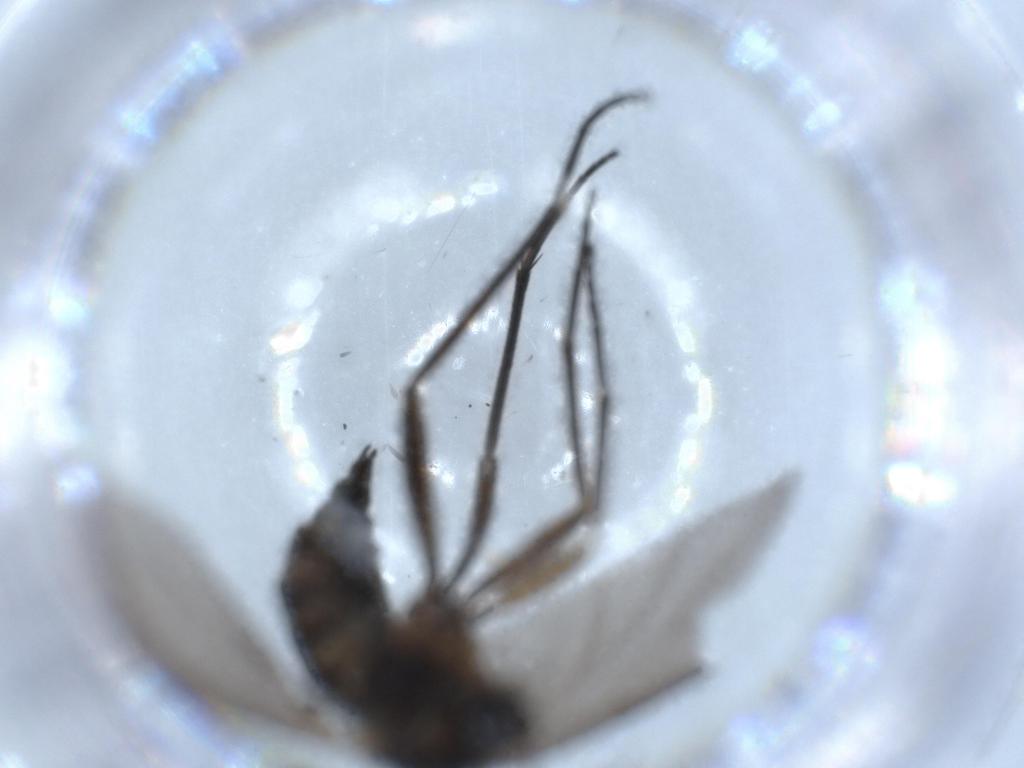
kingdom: Animalia
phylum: Arthropoda
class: Insecta
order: Diptera
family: Sciaridae
